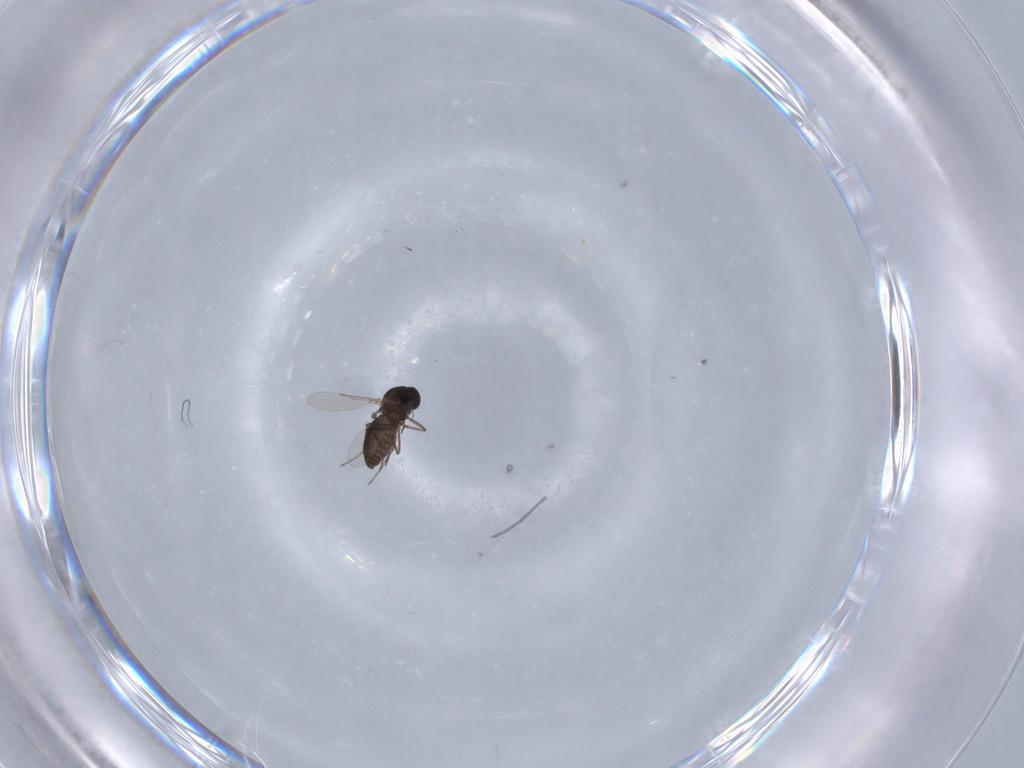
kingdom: Animalia
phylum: Arthropoda
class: Insecta
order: Diptera
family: Ceratopogonidae
